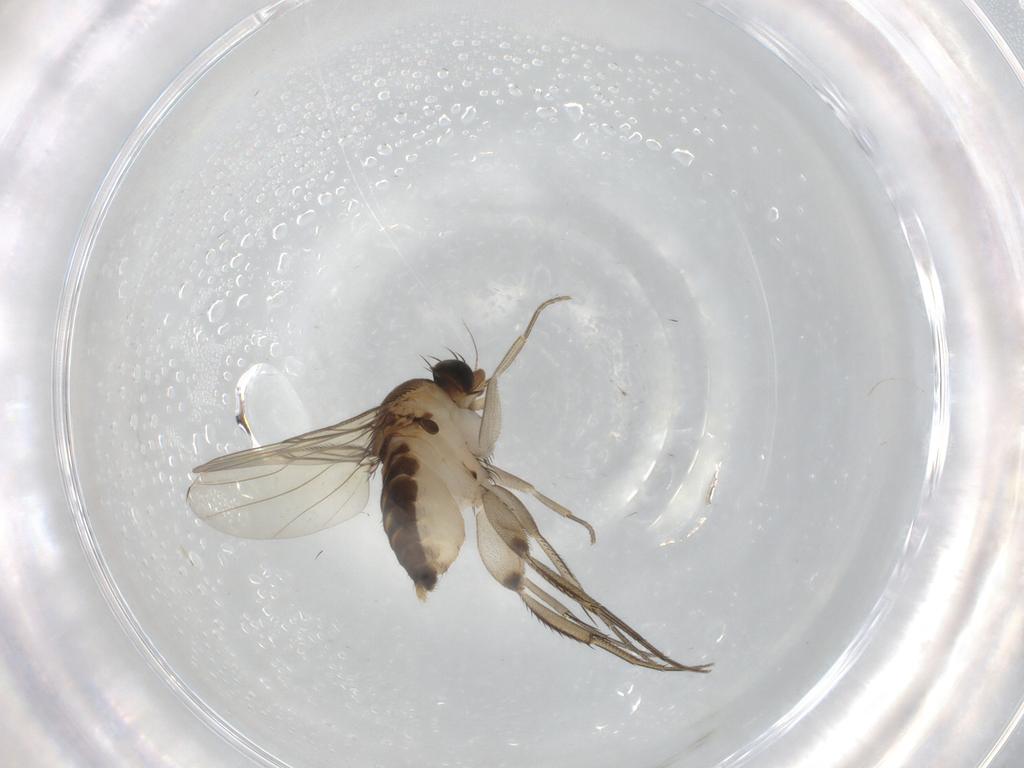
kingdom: Animalia
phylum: Arthropoda
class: Insecta
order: Diptera
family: Phoridae
